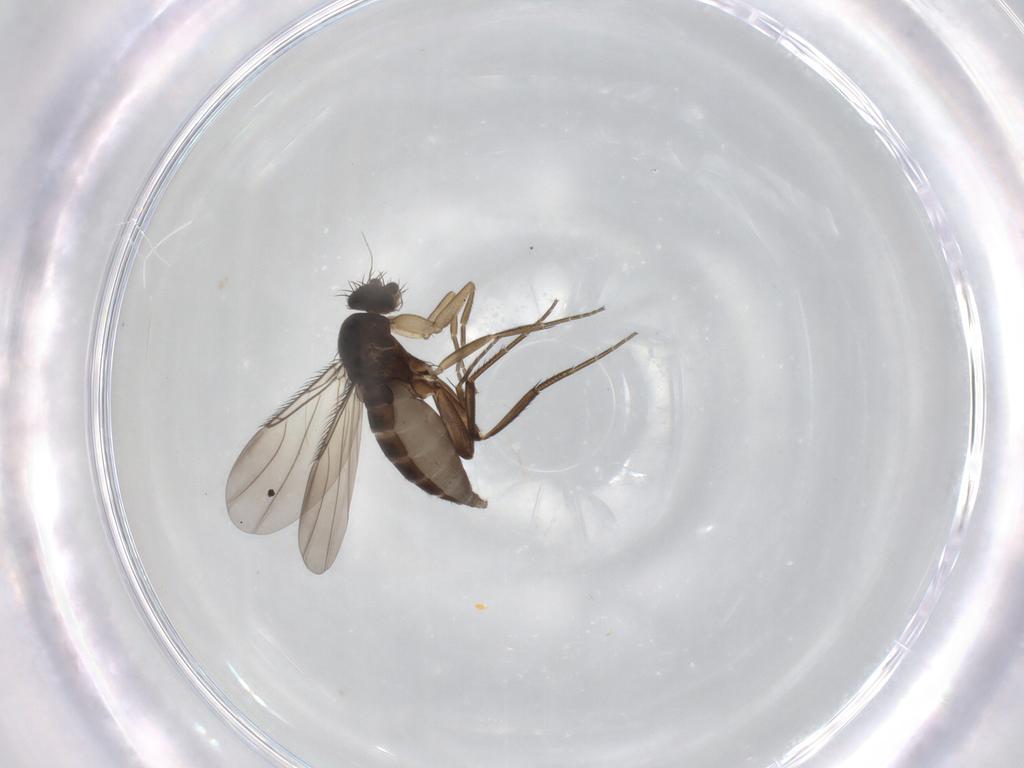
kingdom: Animalia
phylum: Arthropoda
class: Insecta
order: Diptera
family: Phoridae
